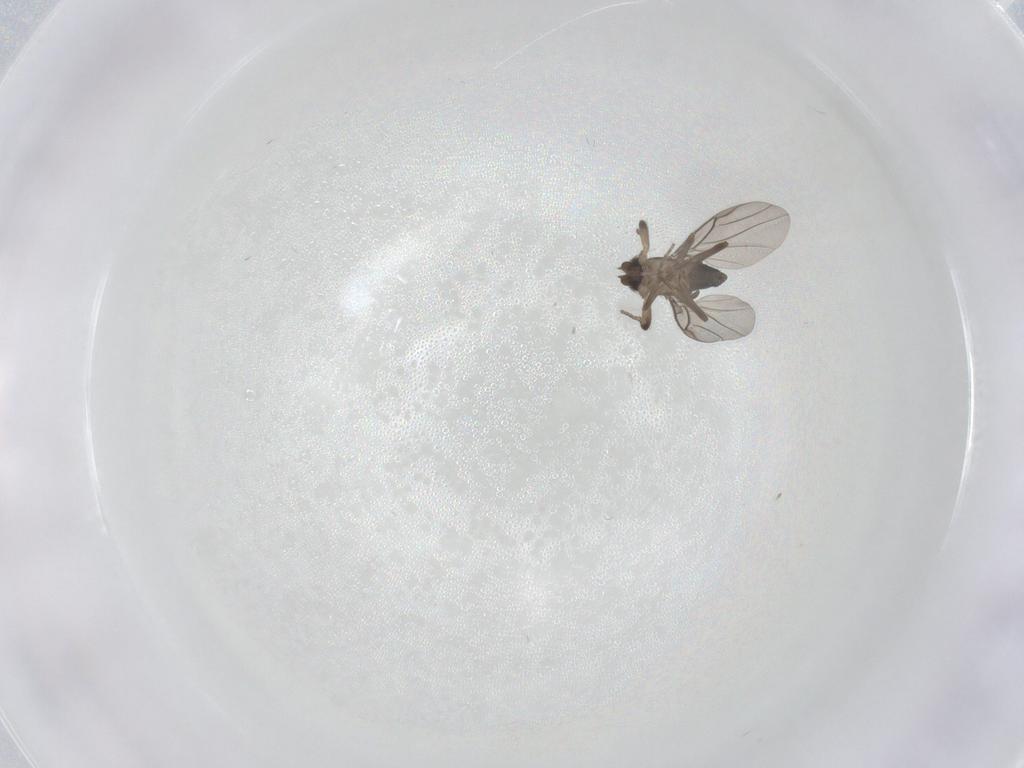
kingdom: Animalia
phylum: Arthropoda
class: Insecta
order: Diptera
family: Phoridae
